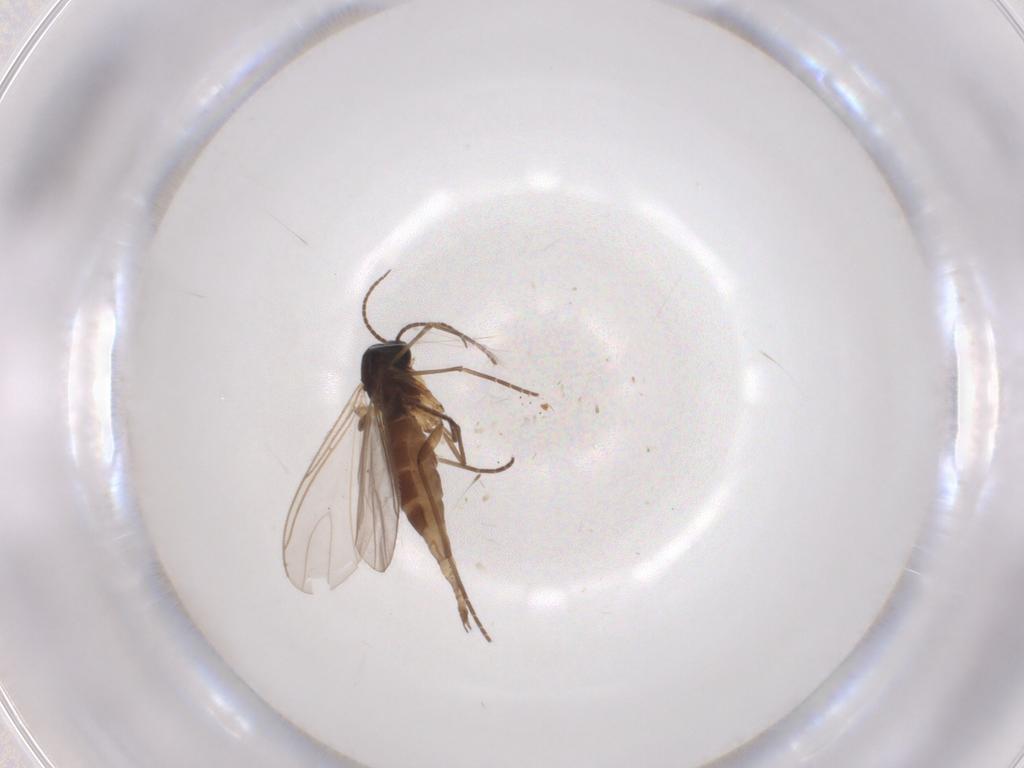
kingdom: Animalia
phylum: Arthropoda
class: Insecta
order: Diptera
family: Sciaridae
